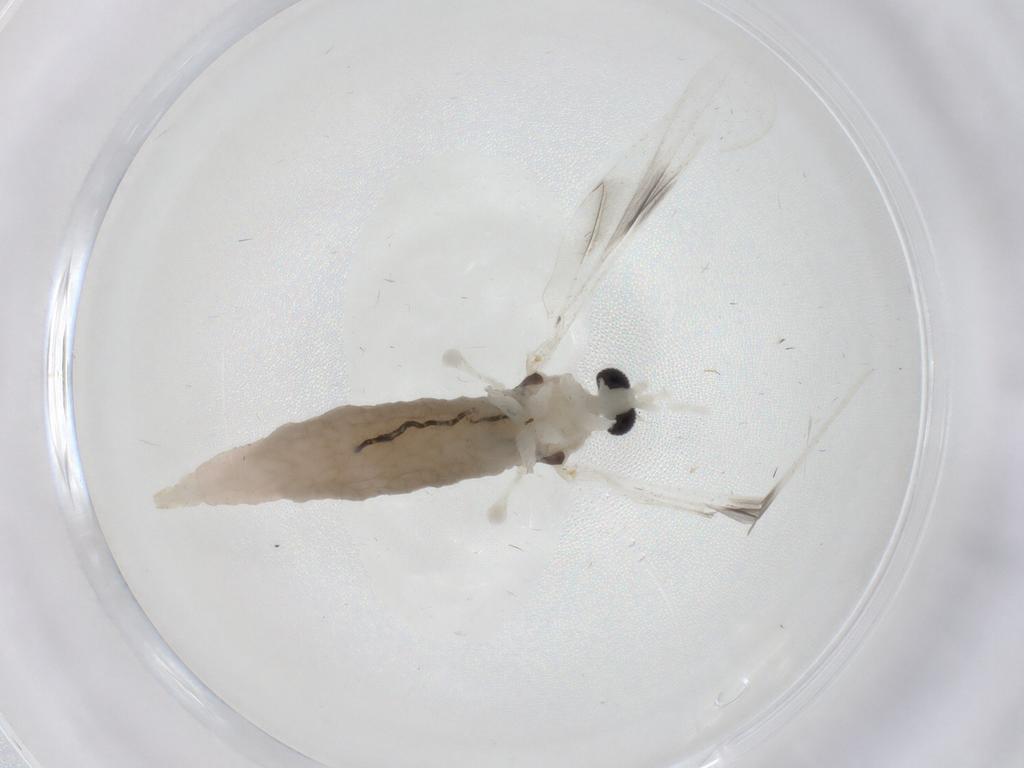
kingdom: Animalia
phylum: Arthropoda
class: Insecta
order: Diptera
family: Cecidomyiidae
